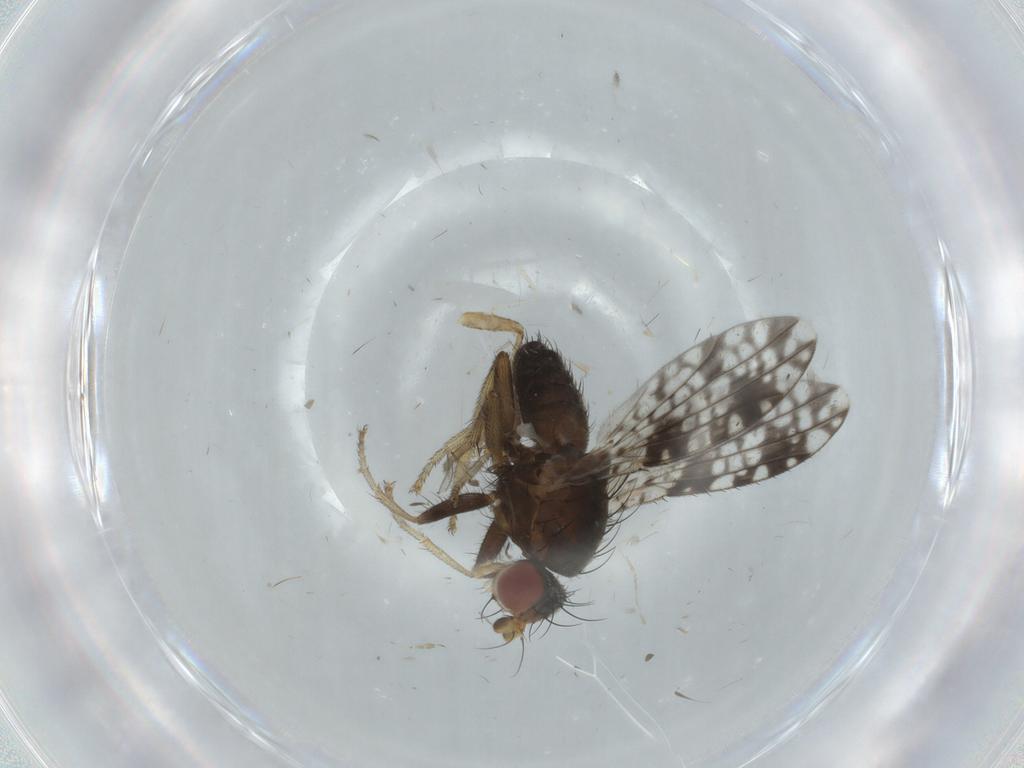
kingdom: Animalia
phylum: Arthropoda
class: Insecta
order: Diptera
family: Tephritidae
